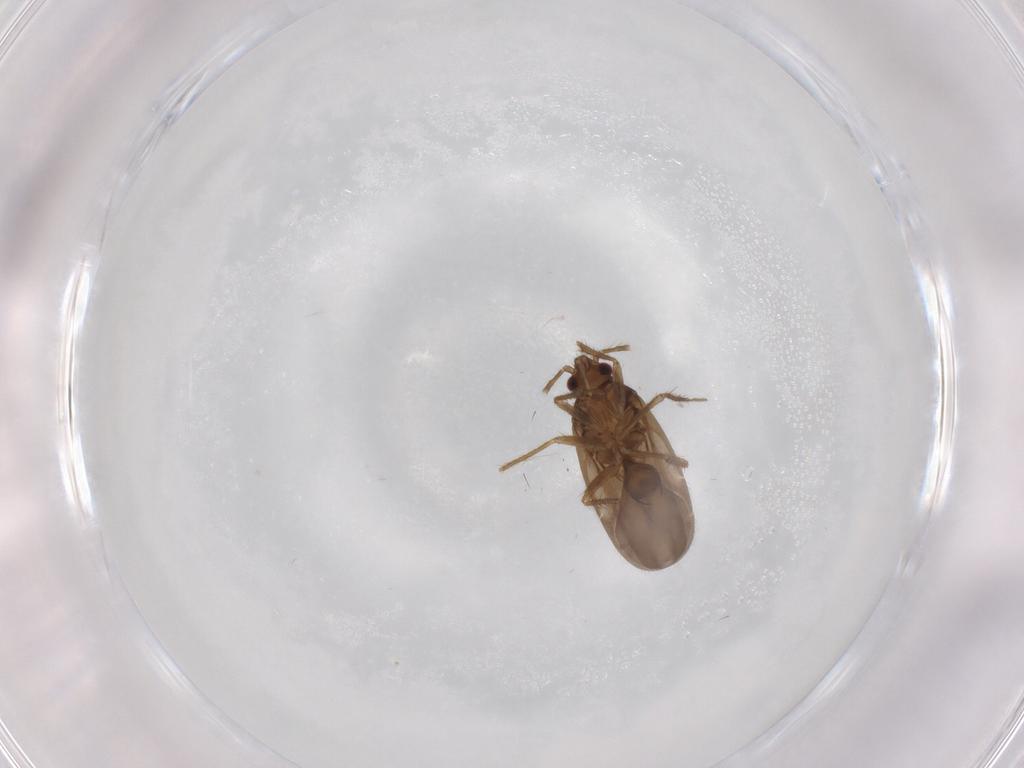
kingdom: Animalia
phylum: Arthropoda
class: Insecta
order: Hemiptera
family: Ceratocombidae
